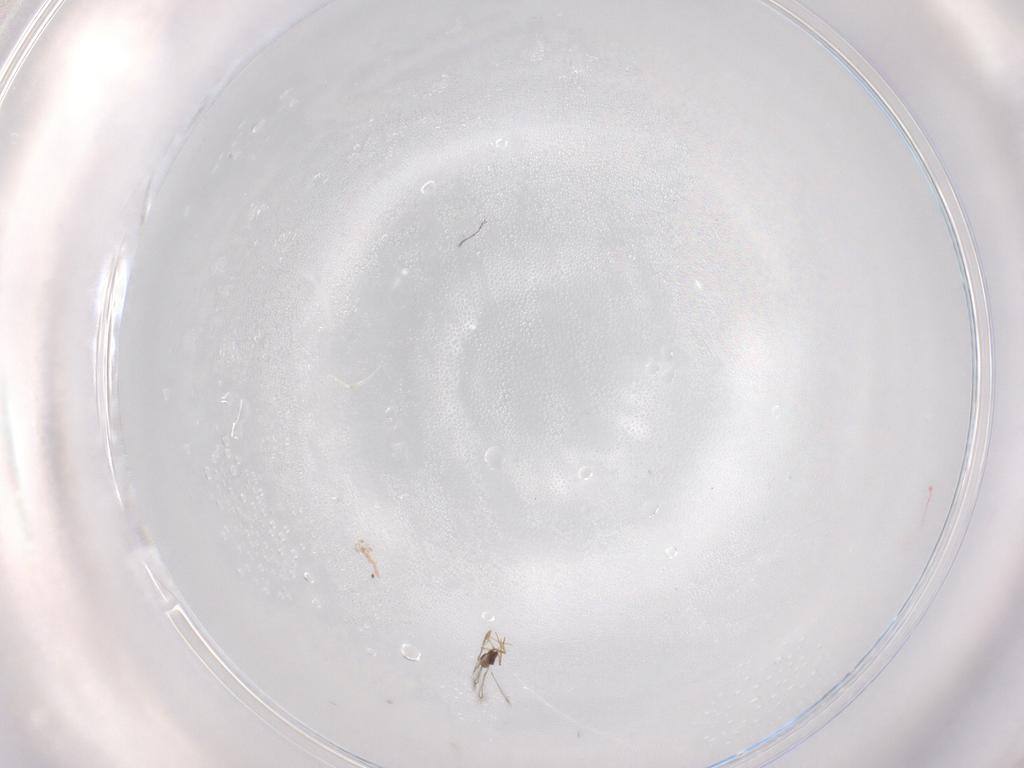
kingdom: Animalia
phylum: Arthropoda
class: Insecta
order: Hymenoptera
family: Mymaridae
